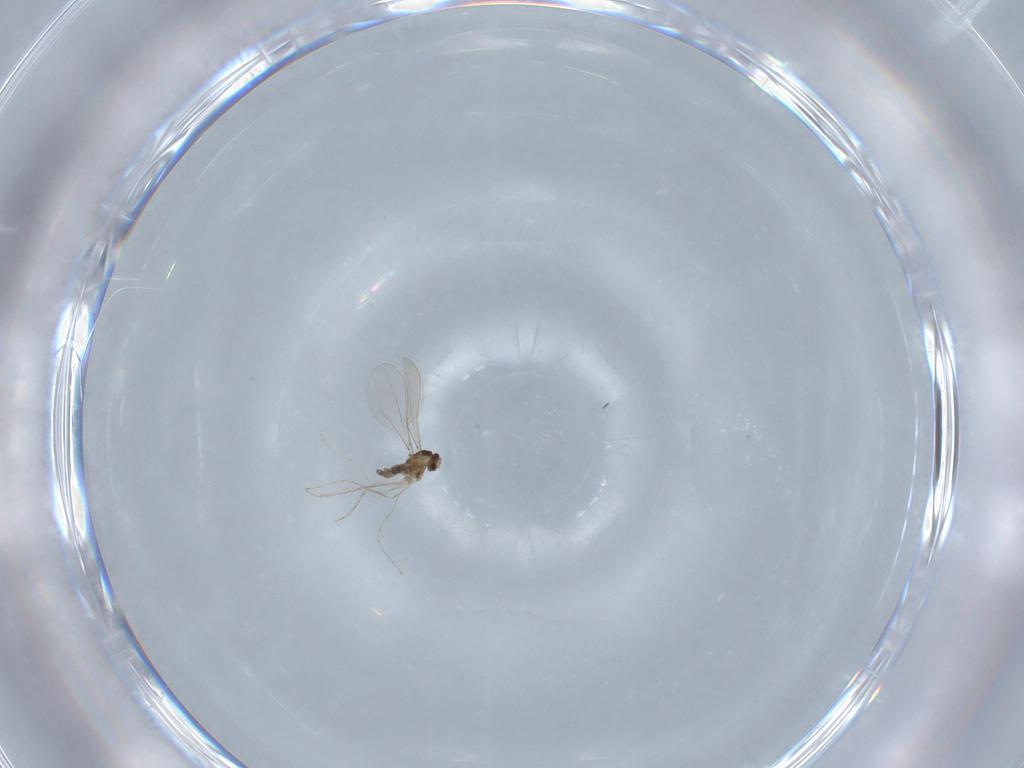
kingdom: Animalia
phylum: Arthropoda
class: Insecta
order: Diptera
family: Cecidomyiidae
